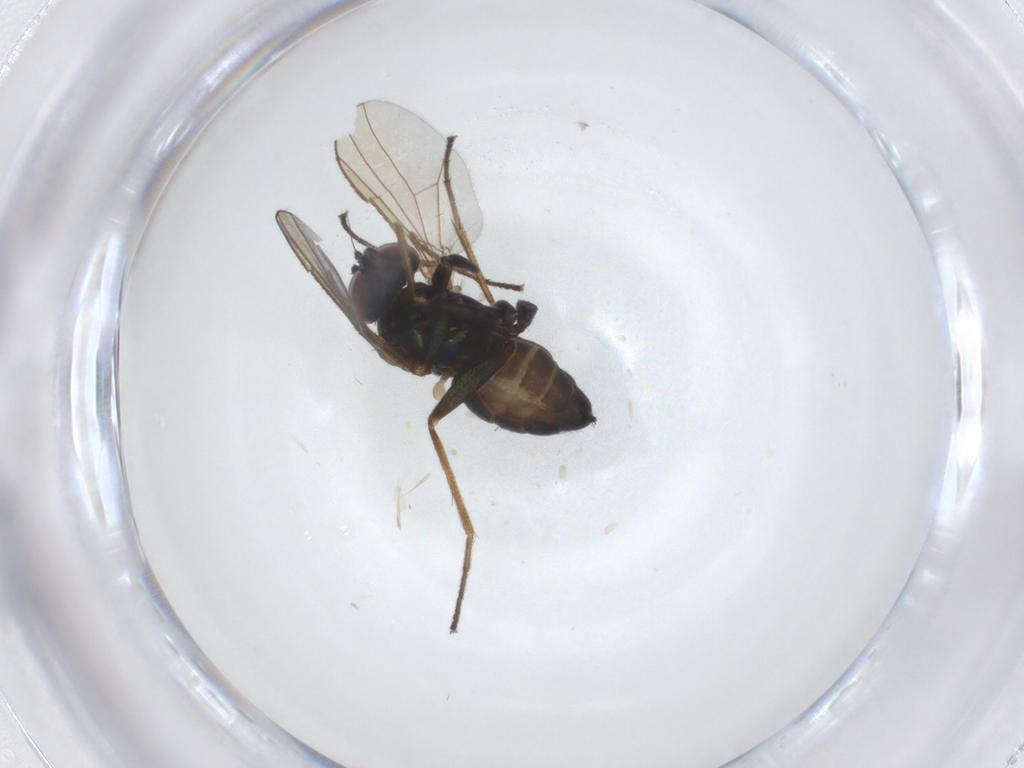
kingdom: Animalia
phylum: Arthropoda
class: Insecta
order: Diptera
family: Dolichopodidae
